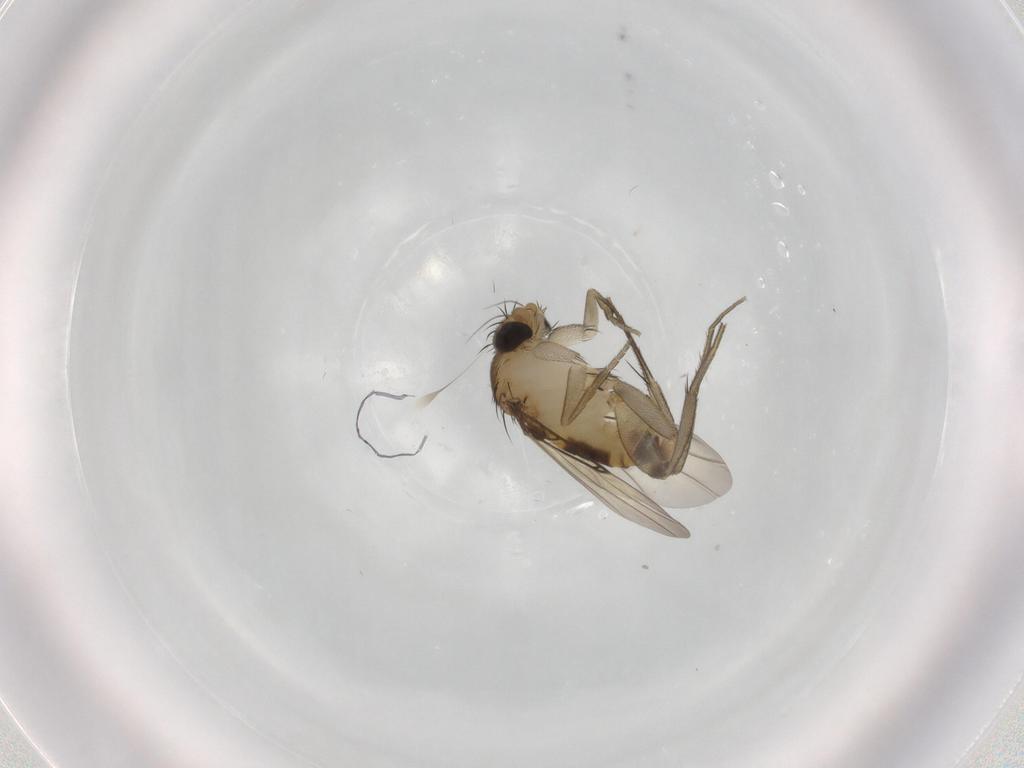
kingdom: Animalia
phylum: Arthropoda
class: Insecta
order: Diptera
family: Phoridae
